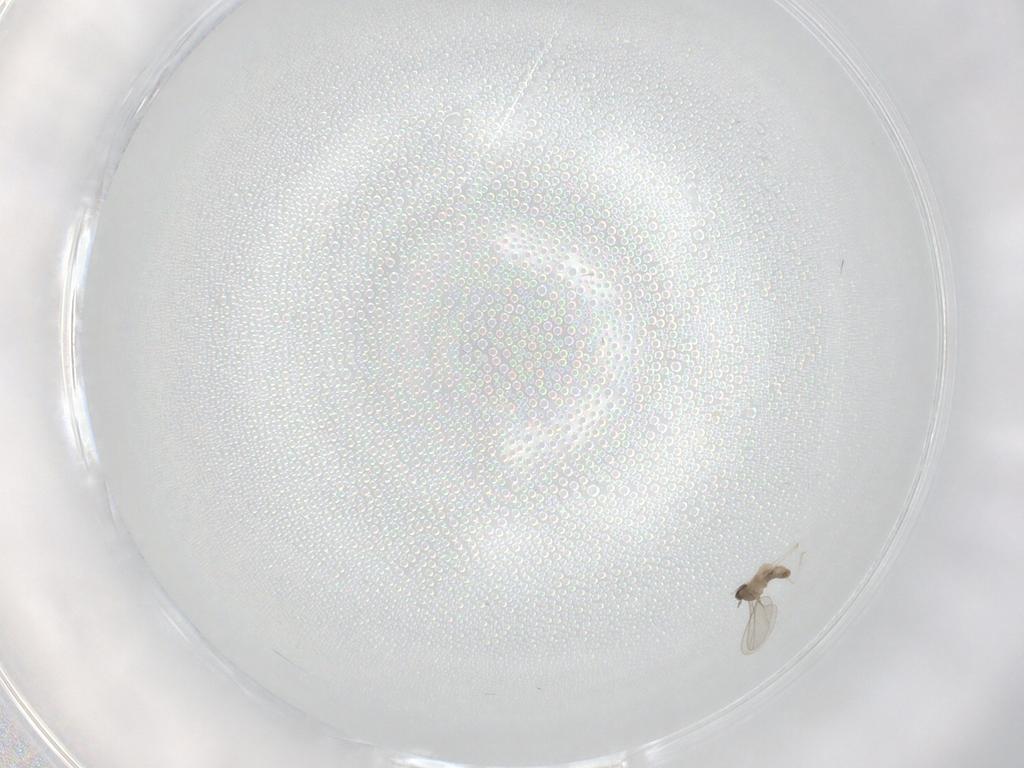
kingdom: Animalia
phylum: Arthropoda
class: Insecta
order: Diptera
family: Cecidomyiidae
